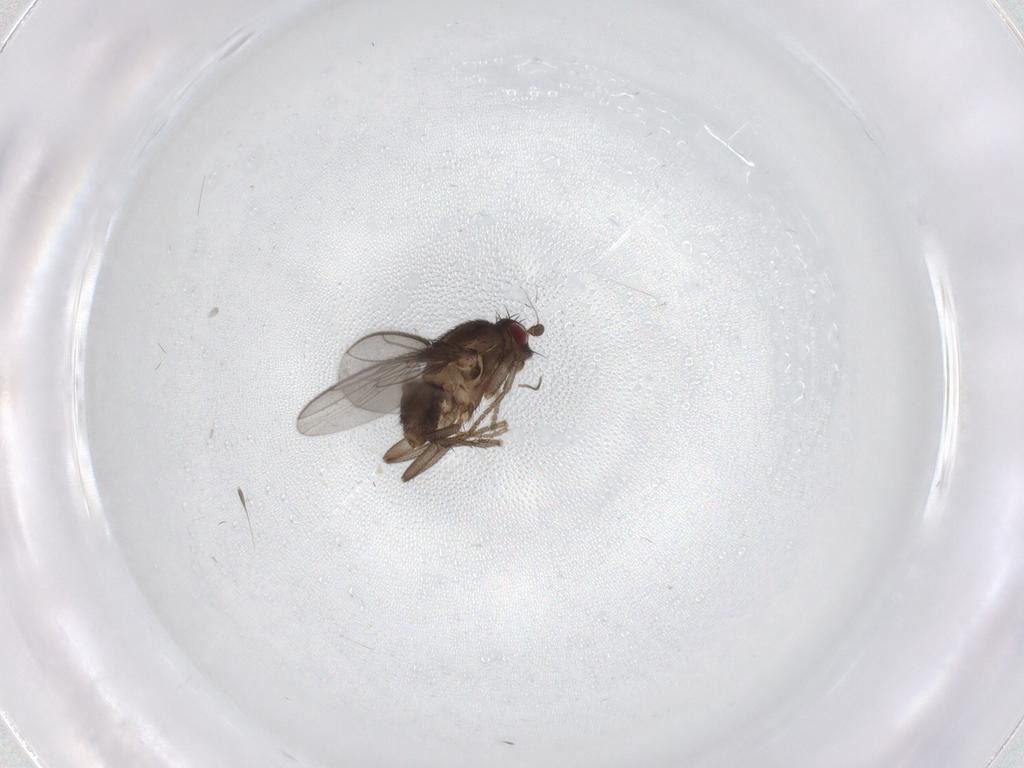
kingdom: Animalia
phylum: Arthropoda
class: Insecta
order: Diptera
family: Sphaeroceridae
